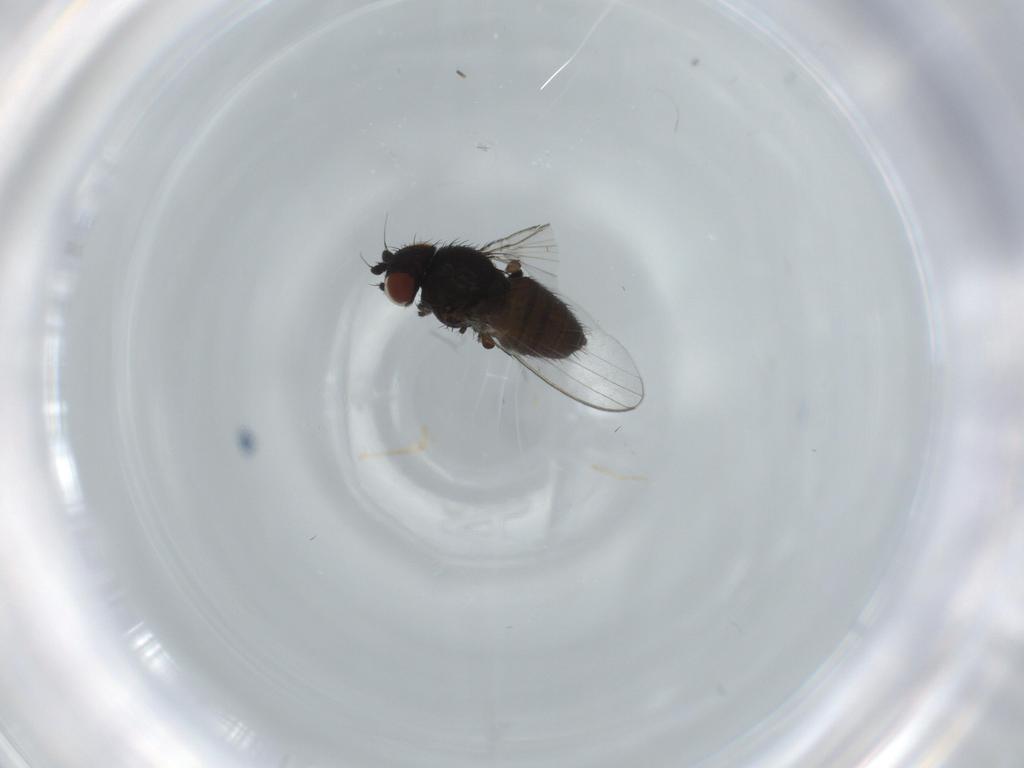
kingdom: Animalia
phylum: Arthropoda
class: Insecta
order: Diptera
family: Milichiidae
